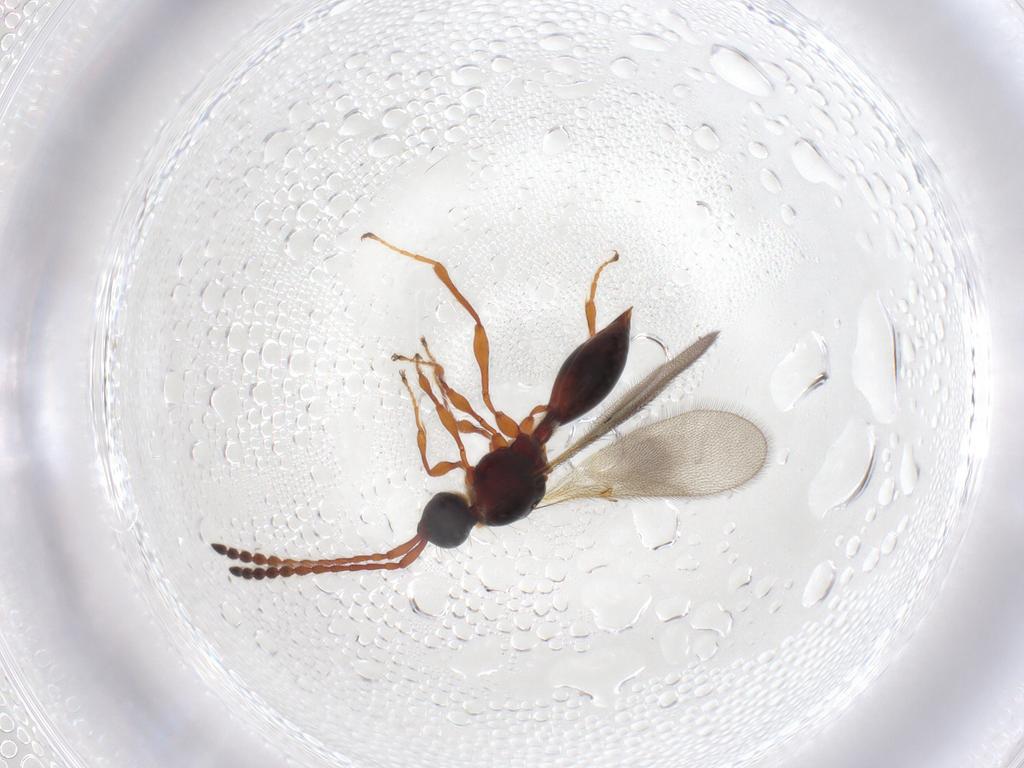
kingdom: Animalia
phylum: Arthropoda
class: Insecta
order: Hymenoptera
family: Diapriidae
